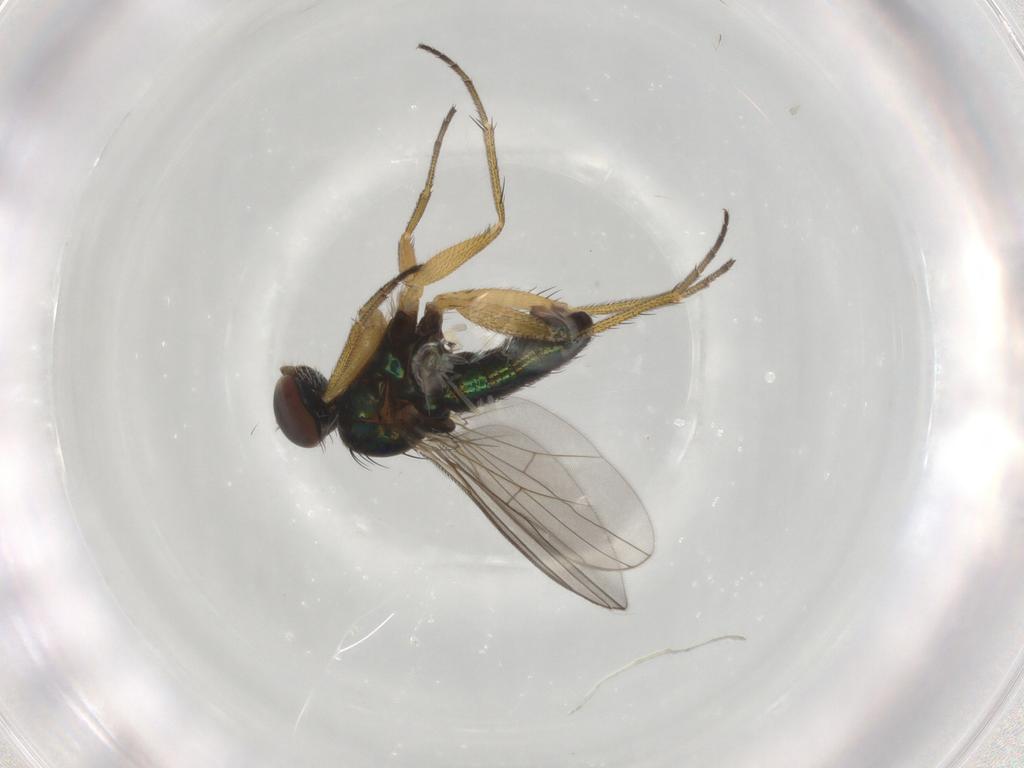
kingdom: Animalia
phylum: Arthropoda
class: Insecta
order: Diptera
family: Dolichopodidae
